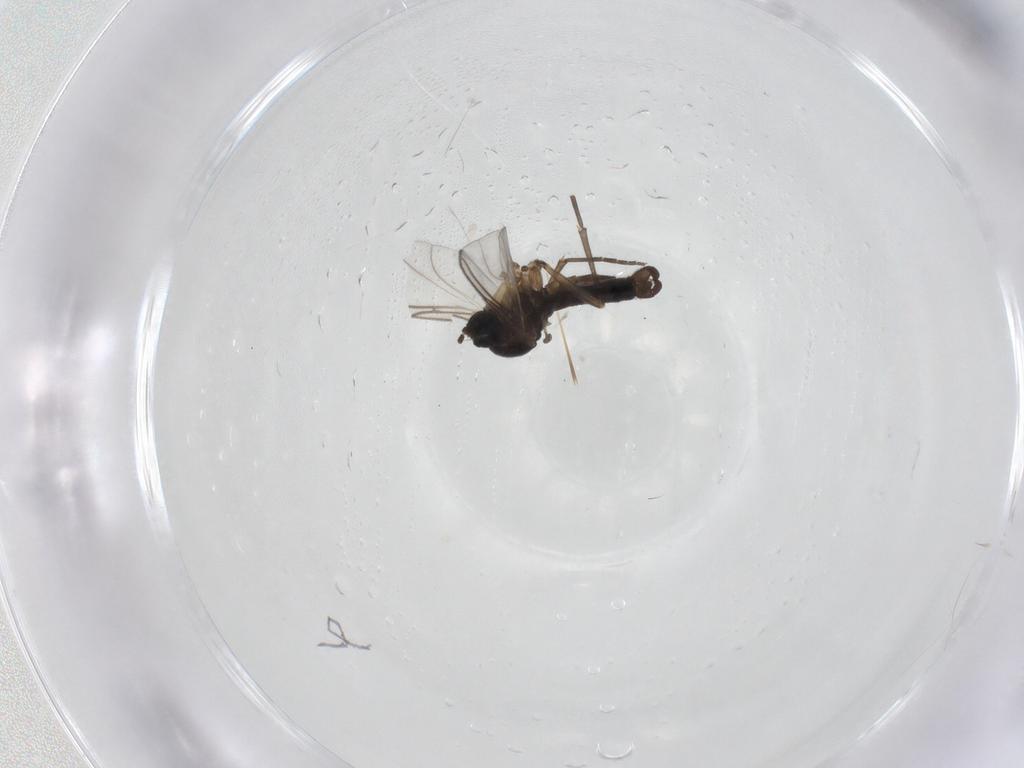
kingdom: Animalia
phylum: Arthropoda
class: Insecta
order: Diptera
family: Sciaridae
